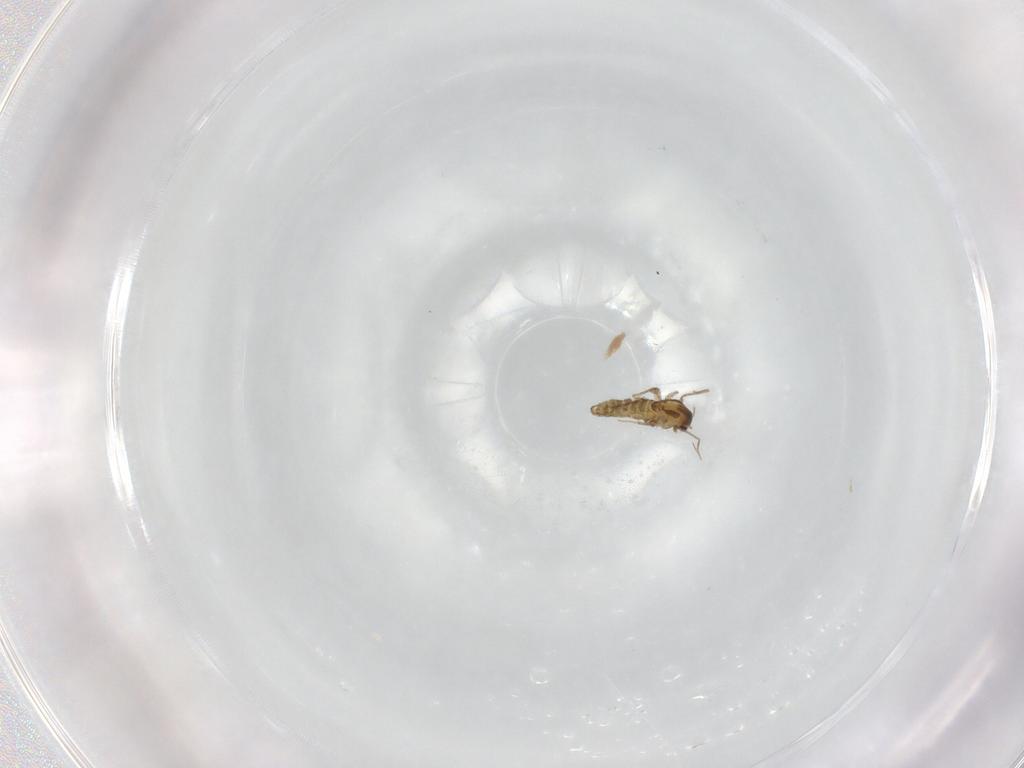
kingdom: Animalia
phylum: Arthropoda
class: Insecta
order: Diptera
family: Chironomidae
